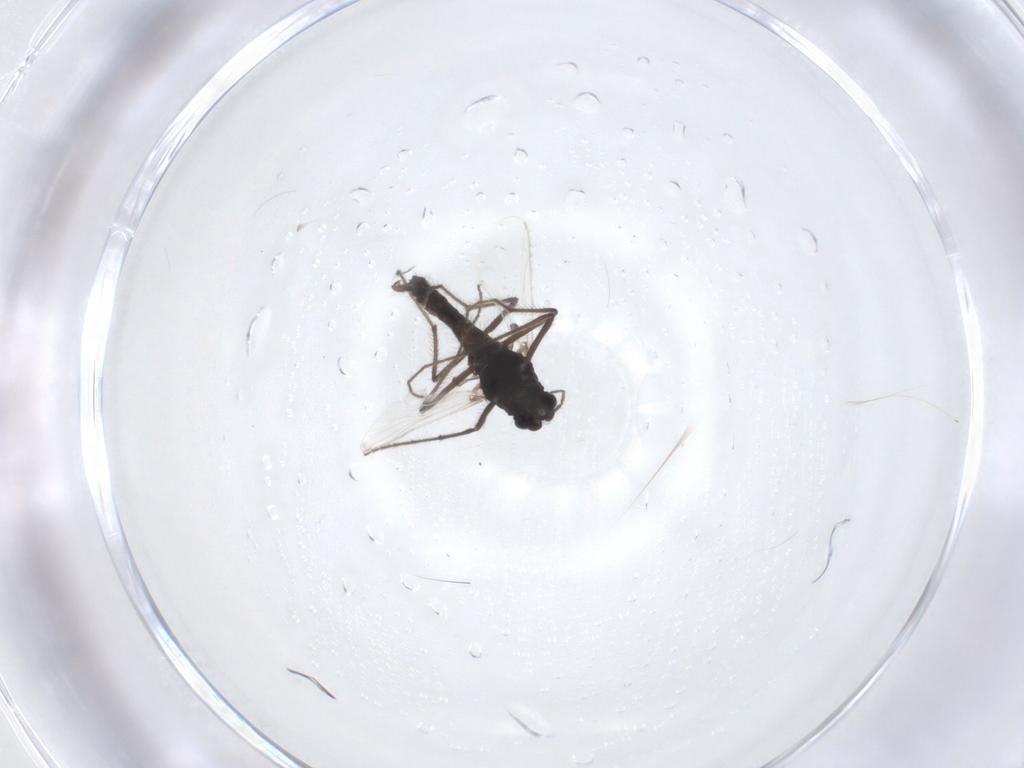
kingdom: Animalia
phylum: Arthropoda
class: Insecta
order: Diptera
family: Chironomidae
